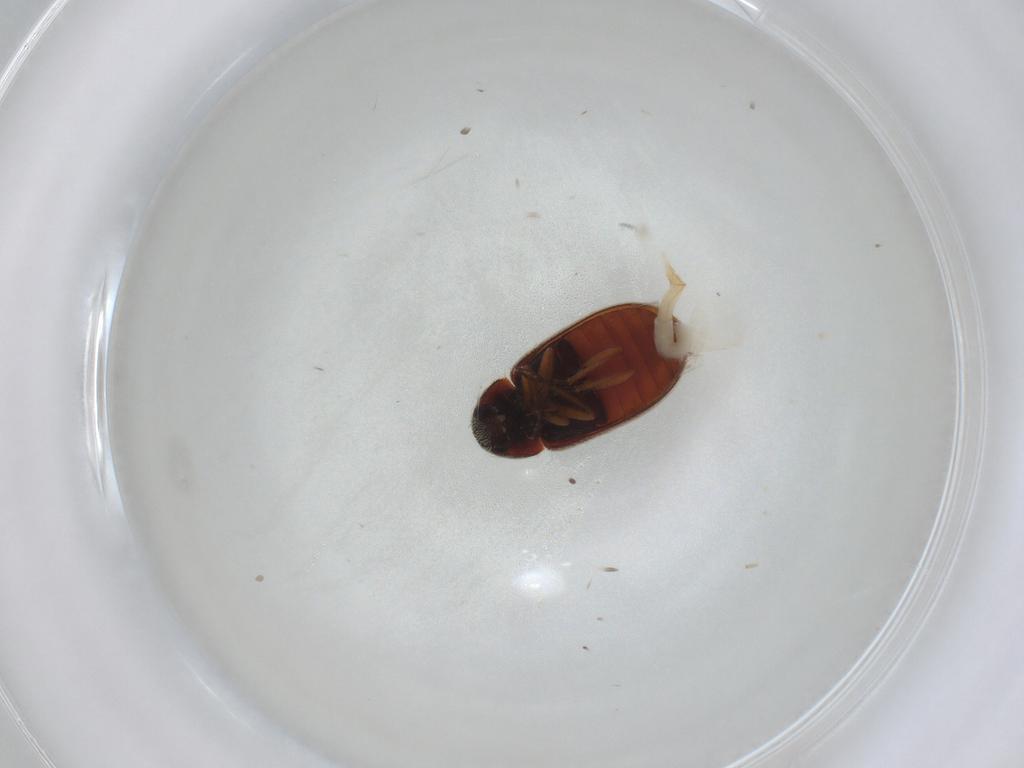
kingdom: Animalia
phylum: Arthropoda
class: Insecta
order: Coleoptera
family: Rhadalidae
